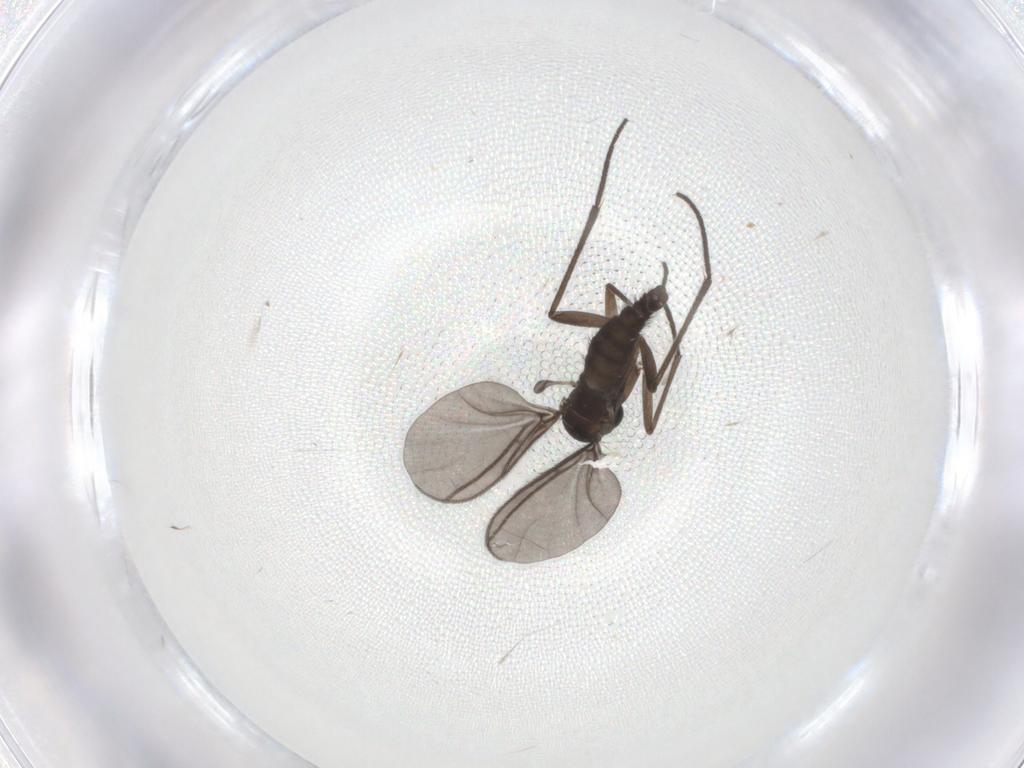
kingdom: Animalia
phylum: Arthropoda
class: Insecta
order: Diptera
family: Sciaridae
